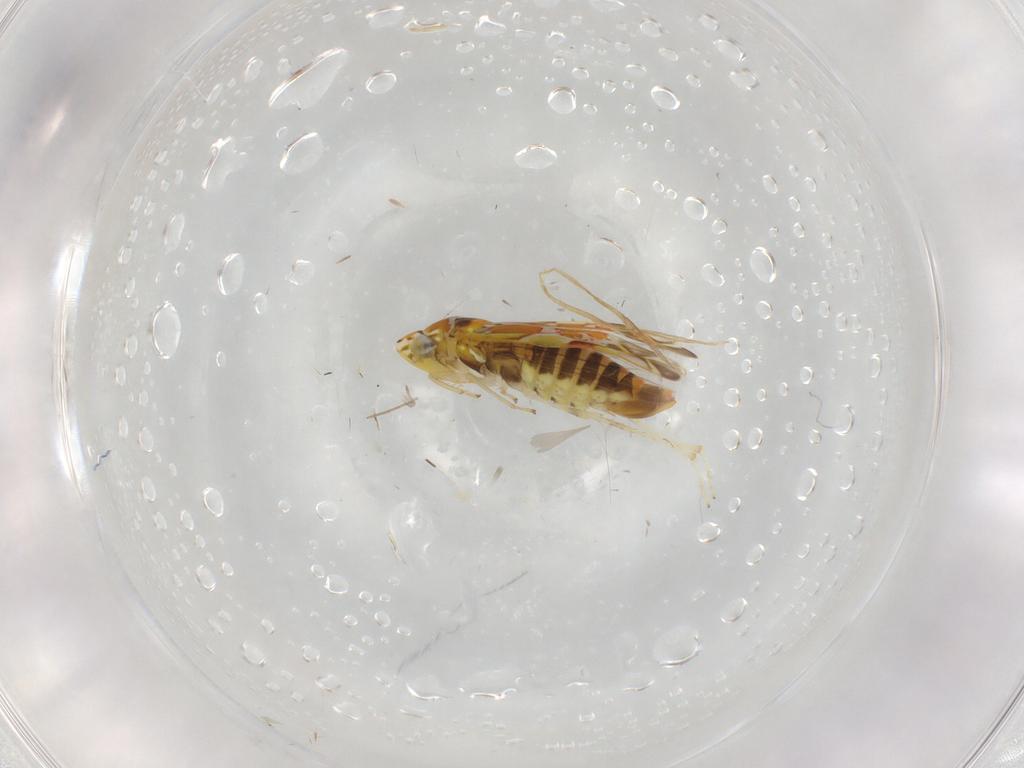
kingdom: Animalia
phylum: Arthropoda
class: Insecta
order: Hemiptera
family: Cicadellidae
